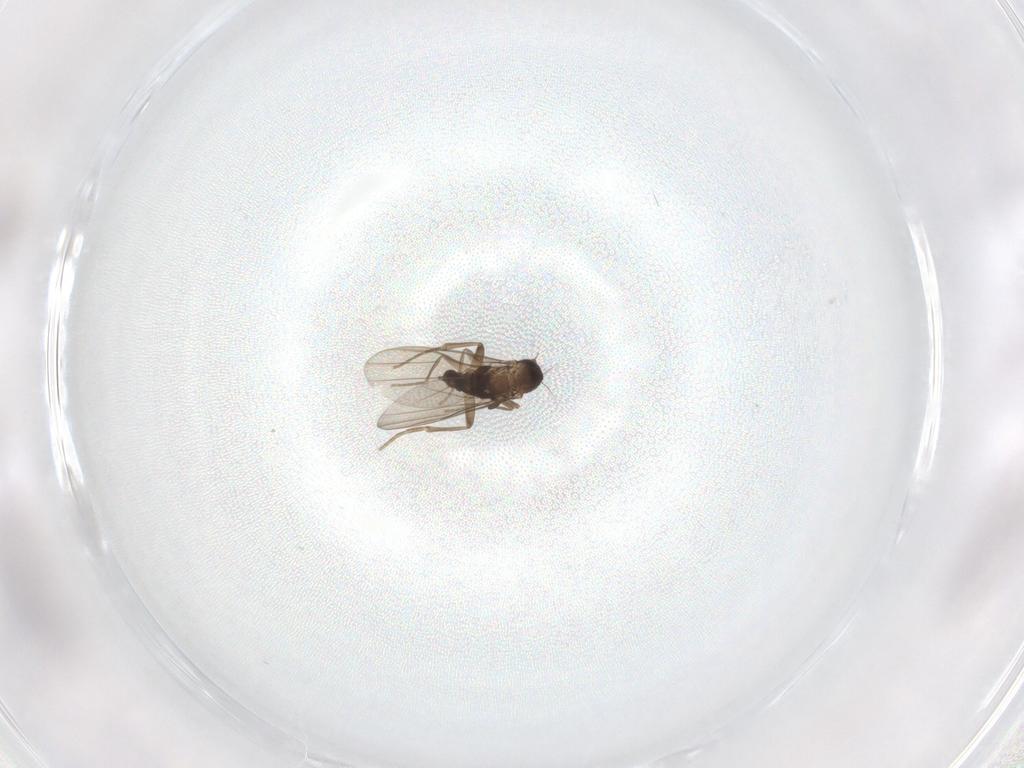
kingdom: Animalia
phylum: Arthropoda
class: Insecta
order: Diptera
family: Phoridae
